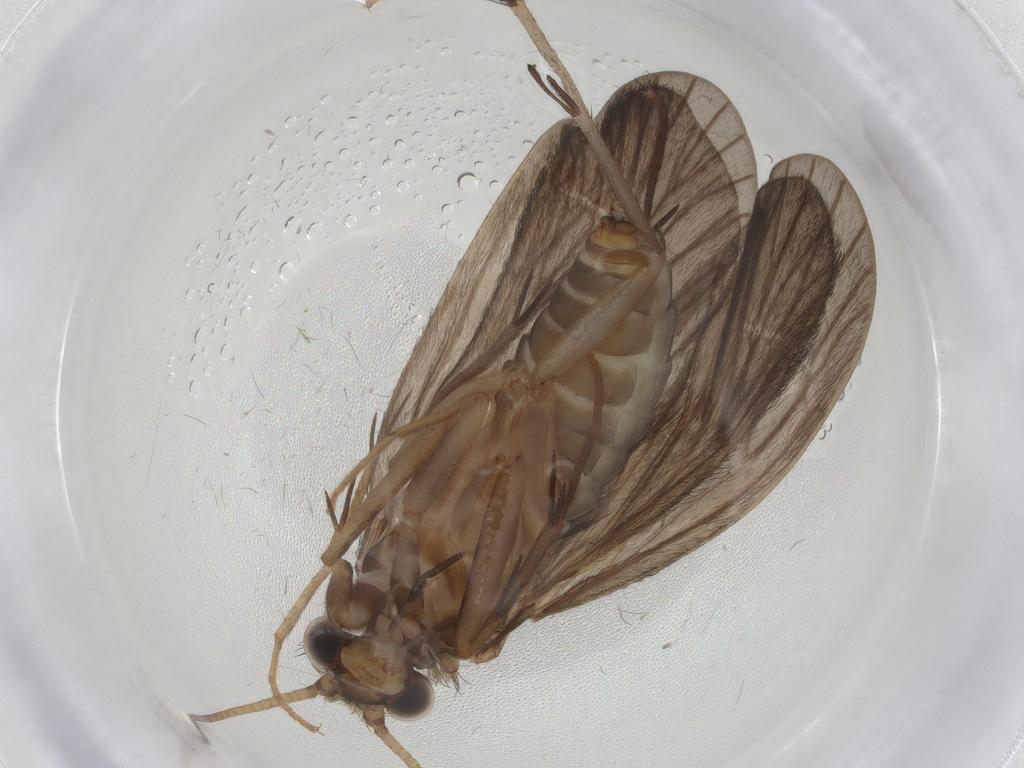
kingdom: Animalia
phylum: Arthropoda
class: Insecta
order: Trichoptera
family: Philopotamidae
